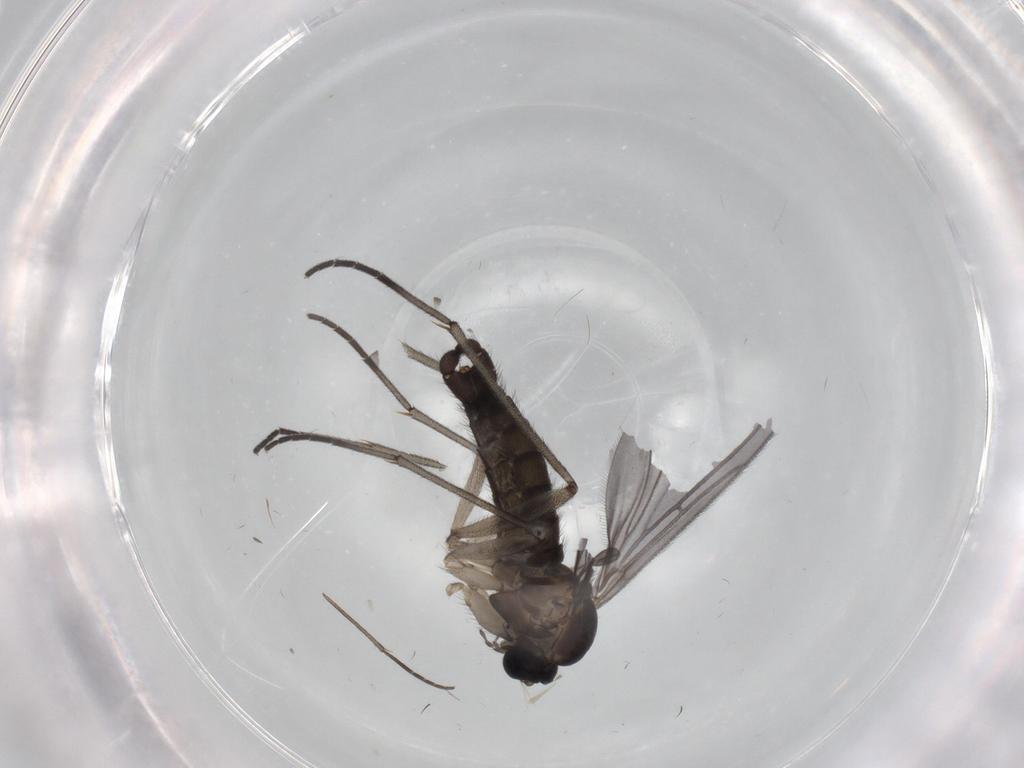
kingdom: Animalia
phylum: Arthropoda
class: Insecta
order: Diptera
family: Sciaridae
